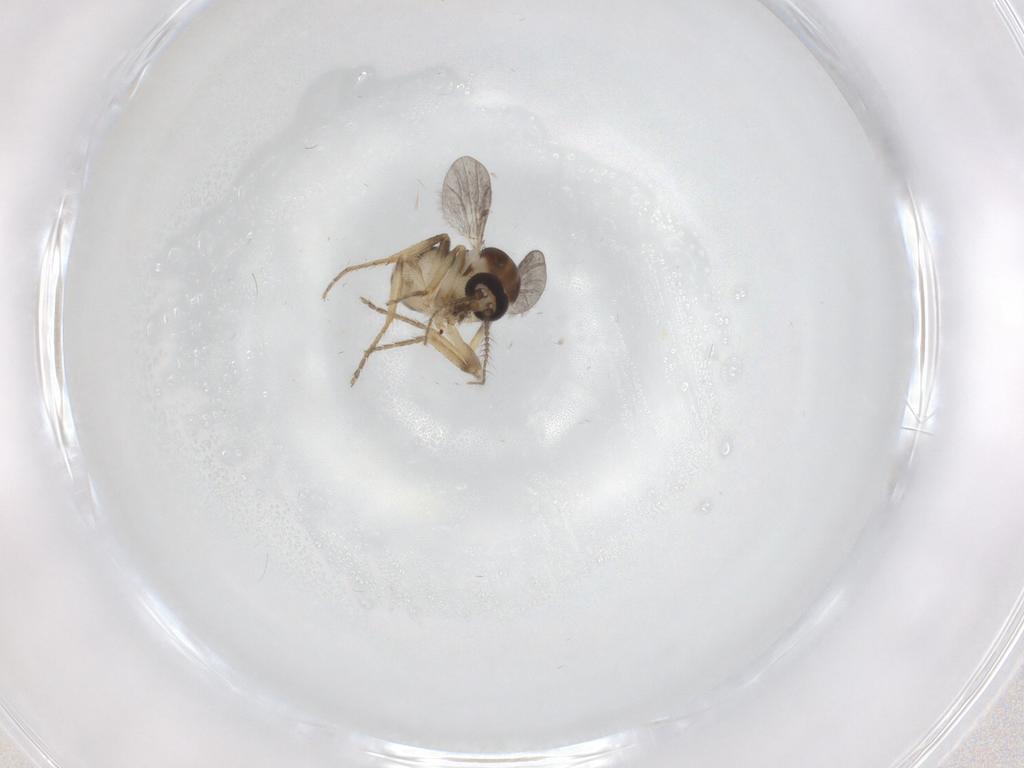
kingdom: Animalia
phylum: Arthropoda
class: Insecta
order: Diptera
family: Ceratopogonidae
